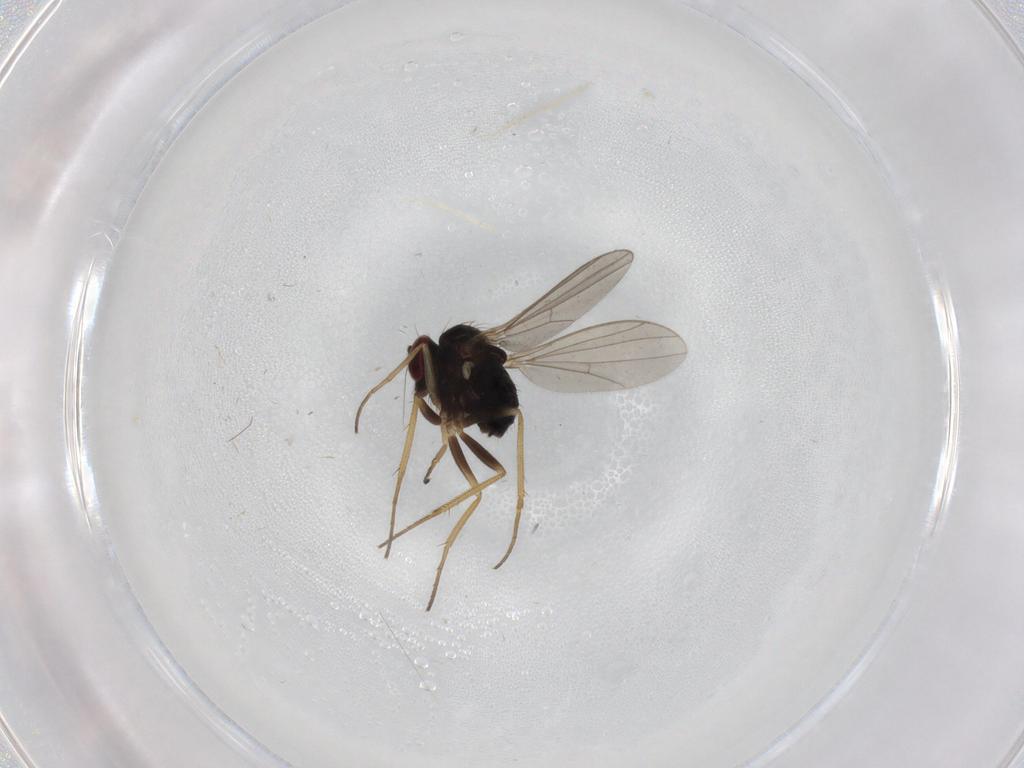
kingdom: Animalia
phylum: Arthropoda
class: Insecta
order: Diptera
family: Dolichopodidae
